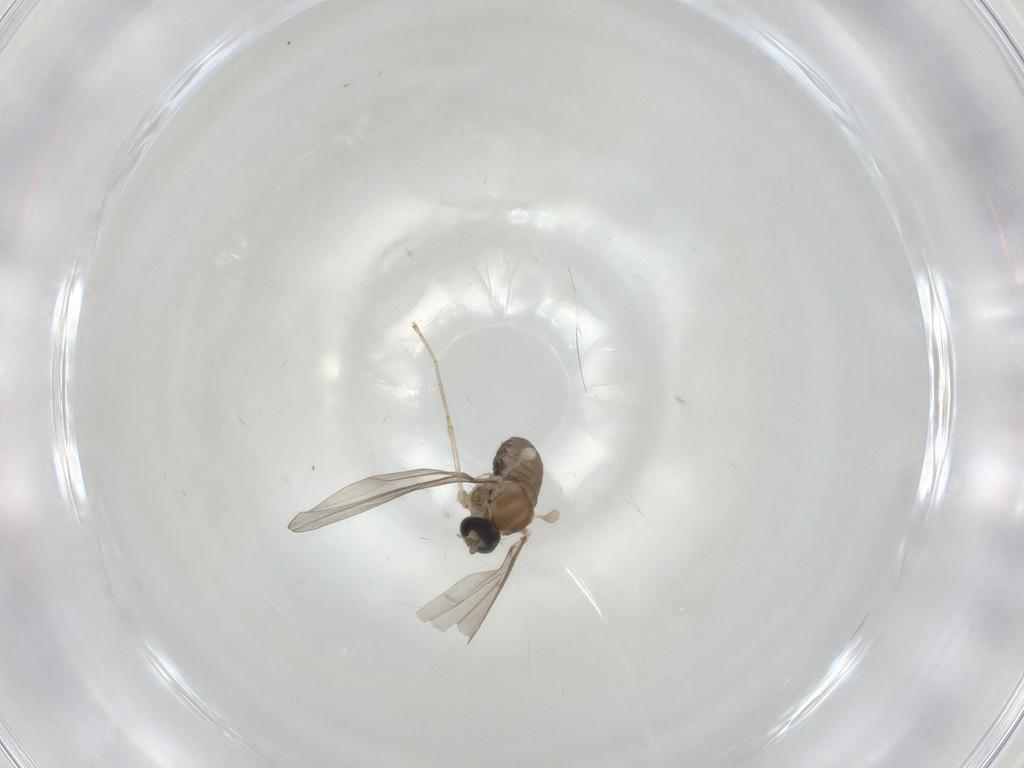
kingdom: Animalia
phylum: Arthropoda
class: Insecta
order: Diptera
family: Cecidomyiidae
